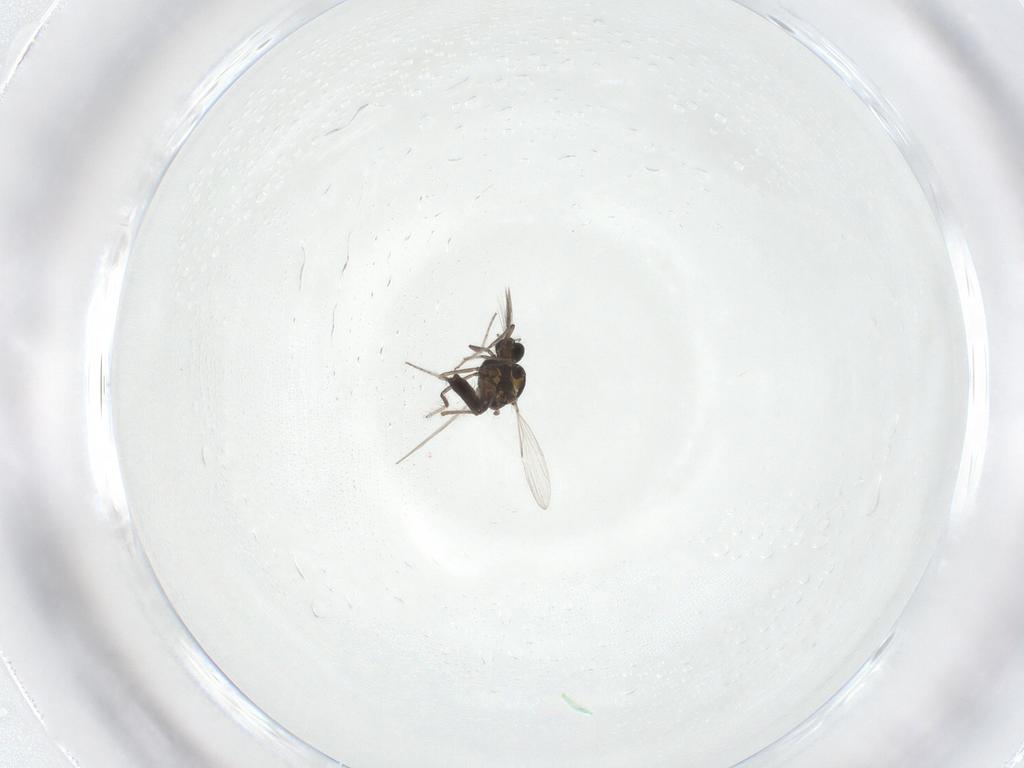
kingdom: Animalia
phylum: Arthropoda
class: Insecta
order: Diptera
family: Ceratopogonidae
